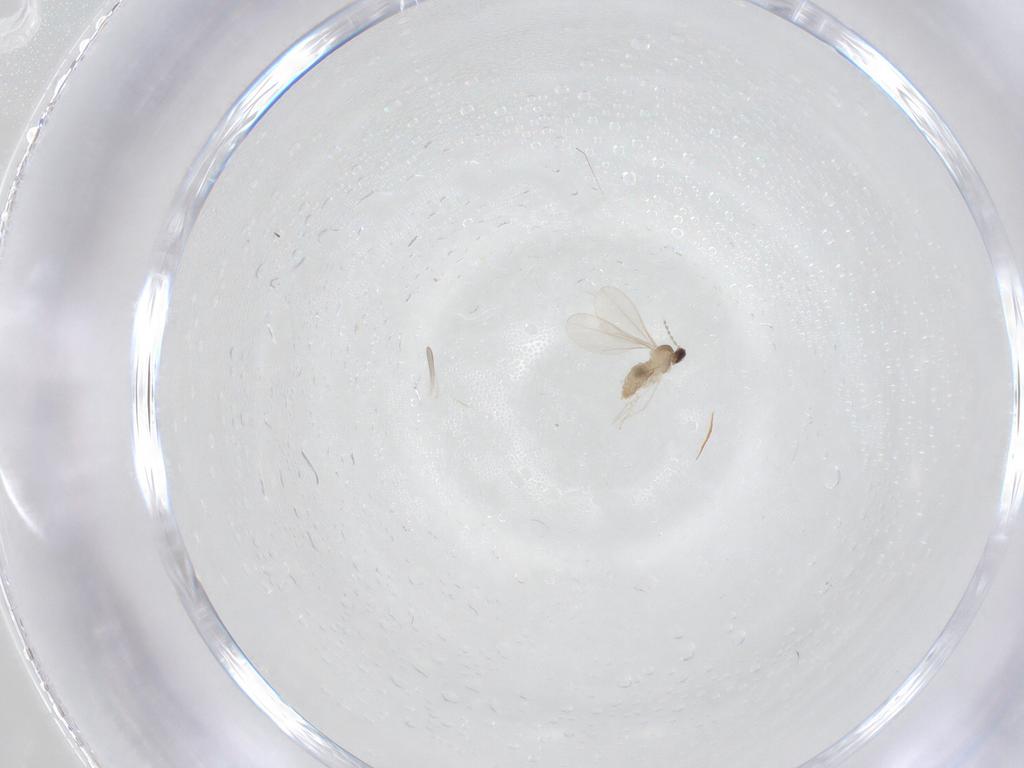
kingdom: Animalia
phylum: Arthropoda
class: Insecta
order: Diptera
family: Cecidomyiidae
